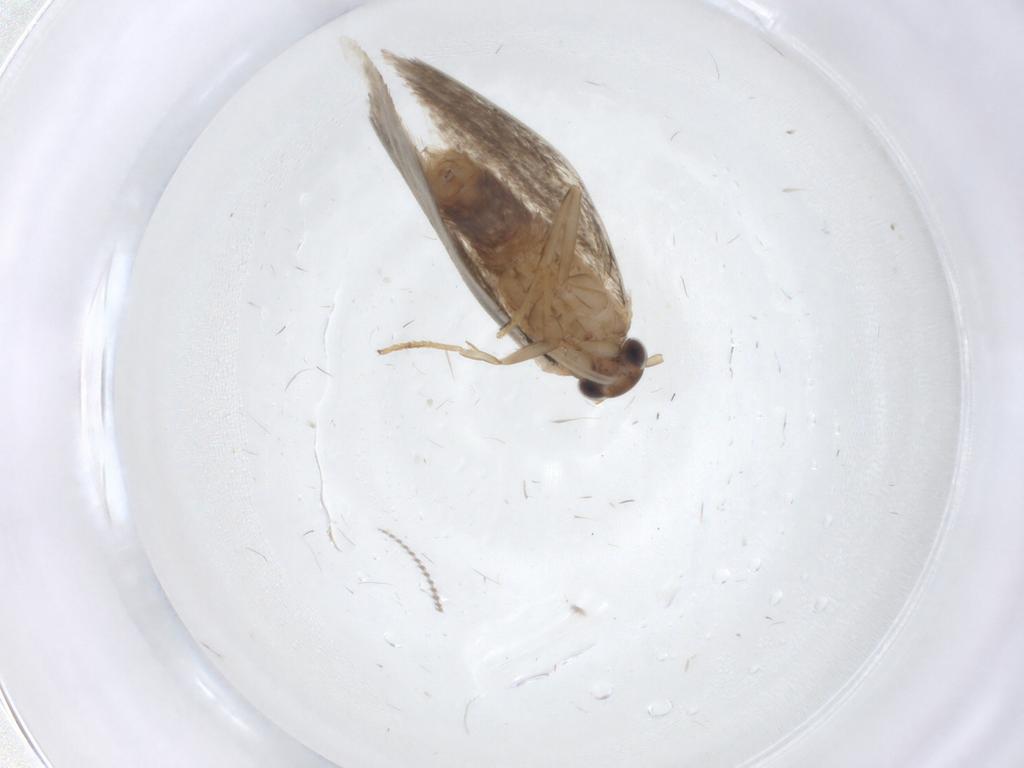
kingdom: Animalia
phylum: Arthropoda
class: Insecta
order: Lepidoptera
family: Oecophoridae
